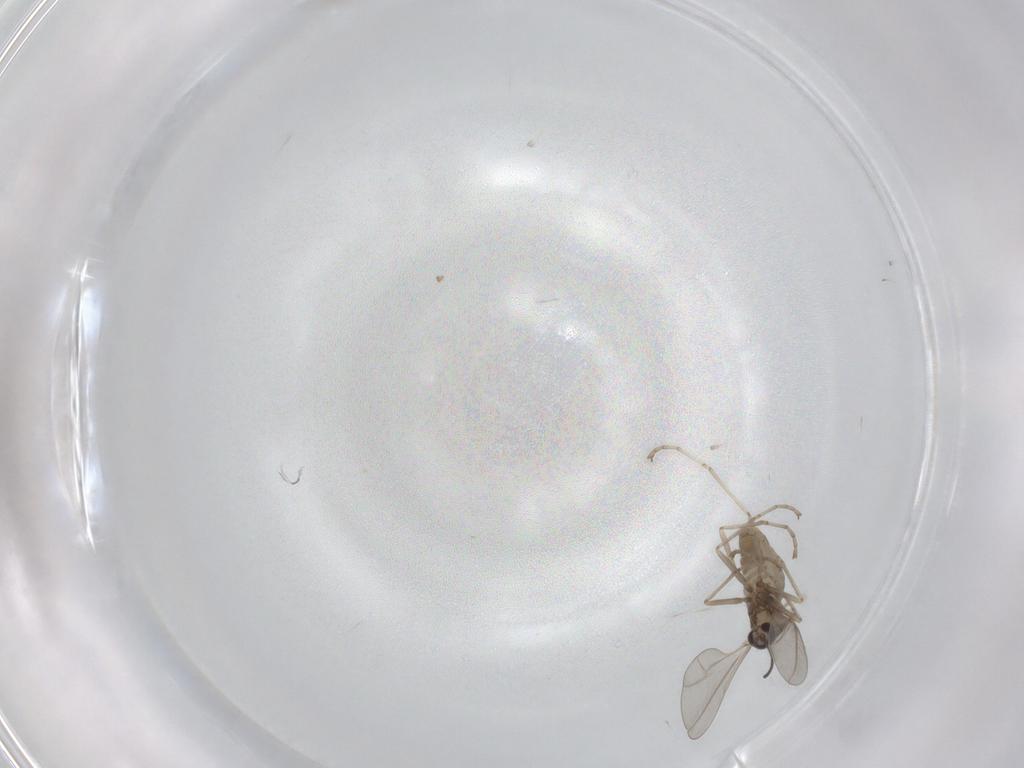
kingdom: Animalia
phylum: Arthropoda
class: Insecta
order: Diptera
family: Cecidomyiidae
